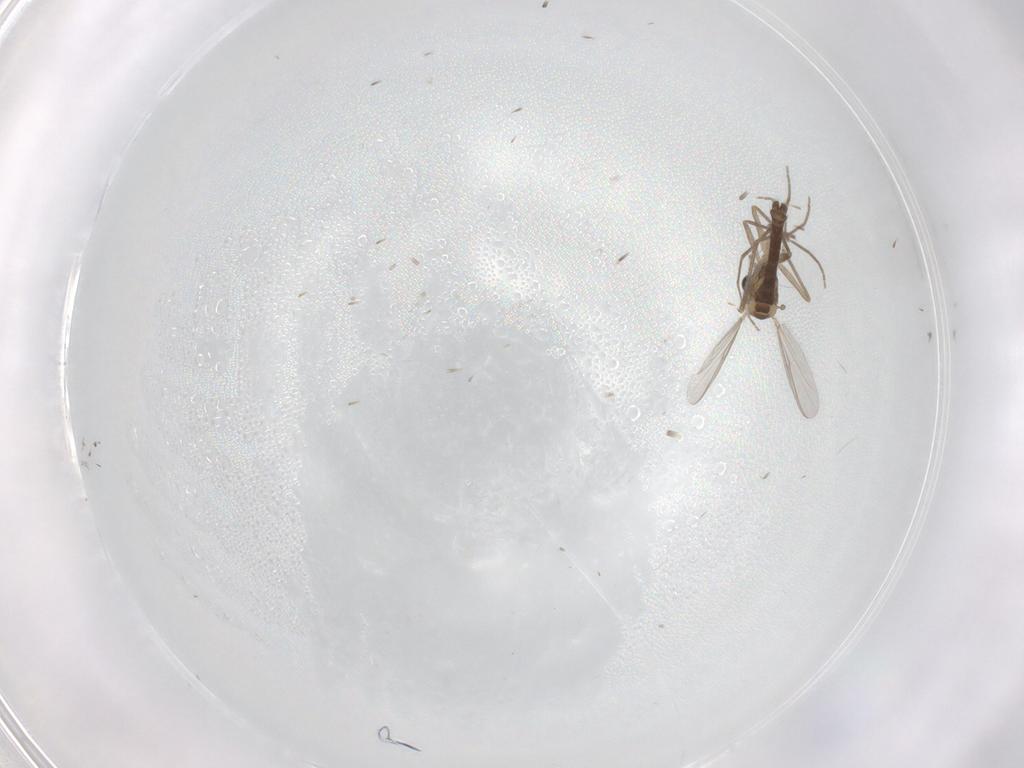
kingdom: Animalia
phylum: Arthropoda
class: Insecta
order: Diptera
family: Chironomidae
